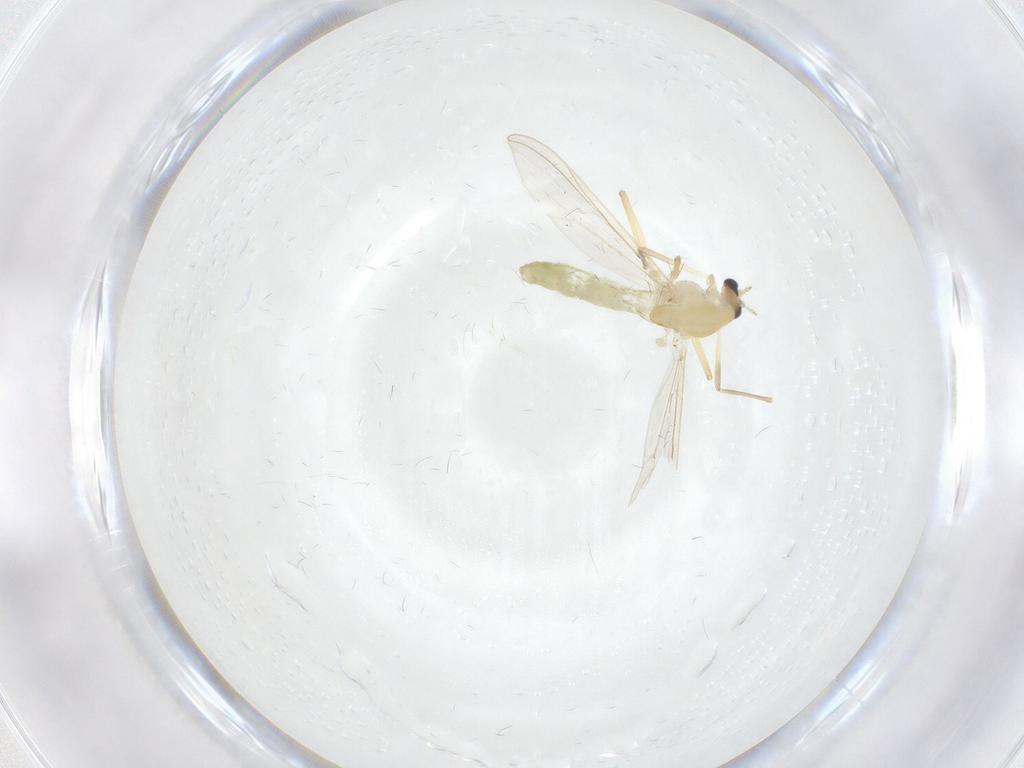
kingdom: Animalia
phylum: Arthropoda
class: Insecta
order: Diptera
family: Chironomidae
